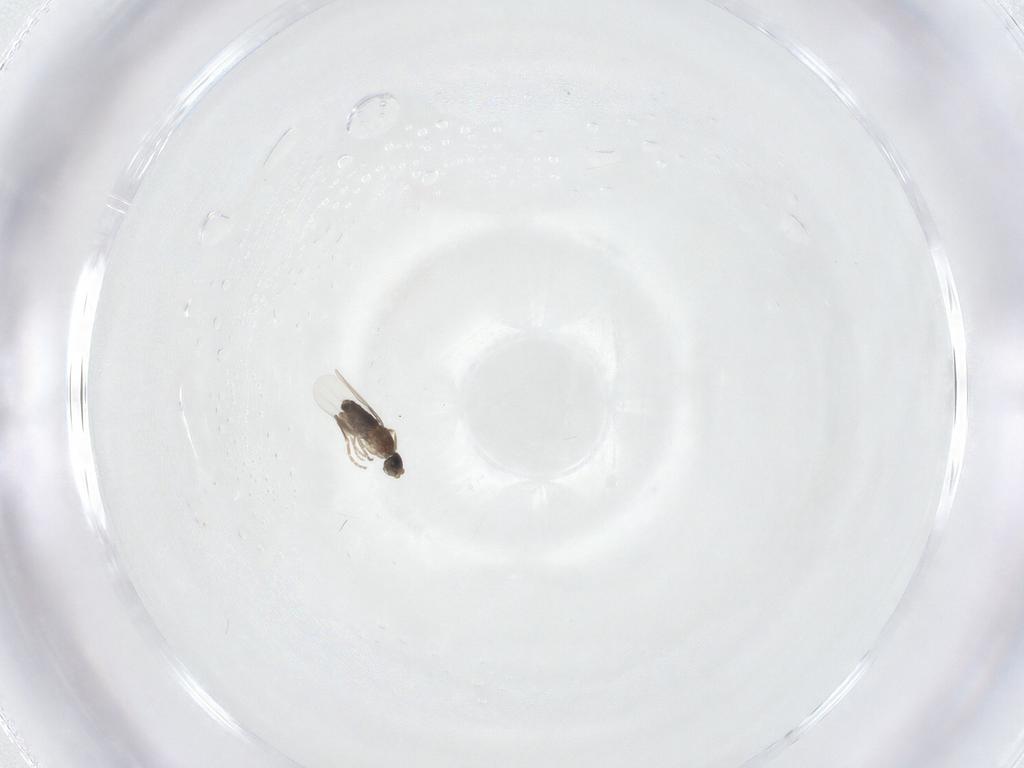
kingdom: Animalia
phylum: Arthropoda
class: Insecta
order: Diptera
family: Phoridae
